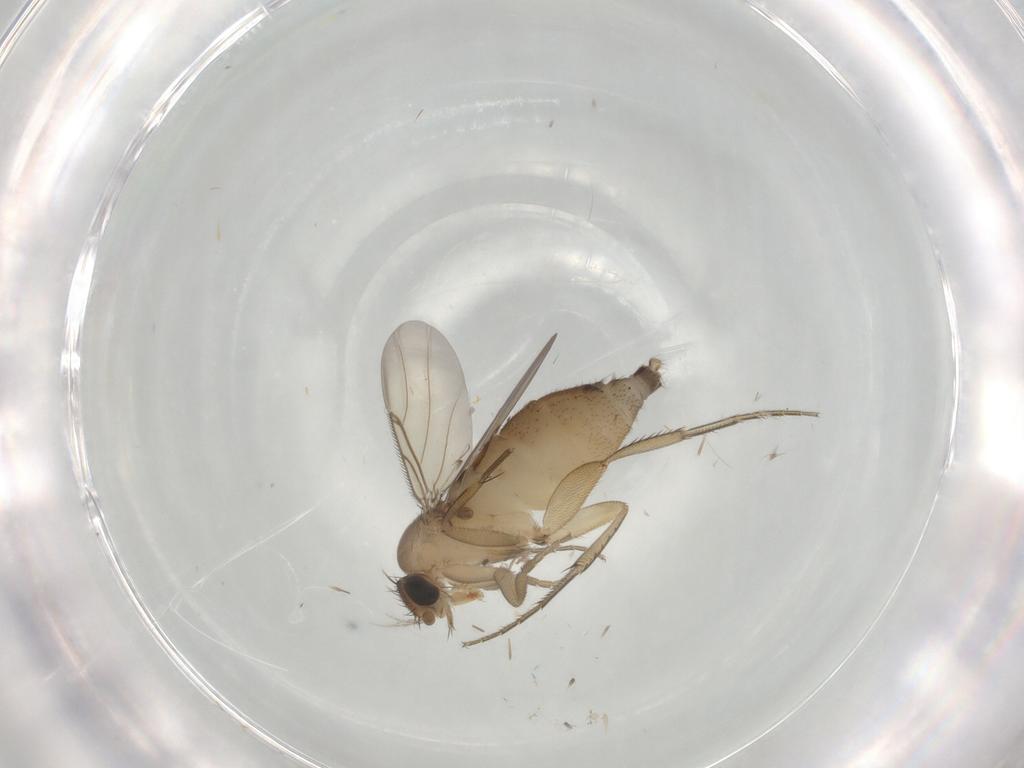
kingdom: Animalia
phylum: Arthropoda
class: Insecta
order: Diptera
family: Phoridae
